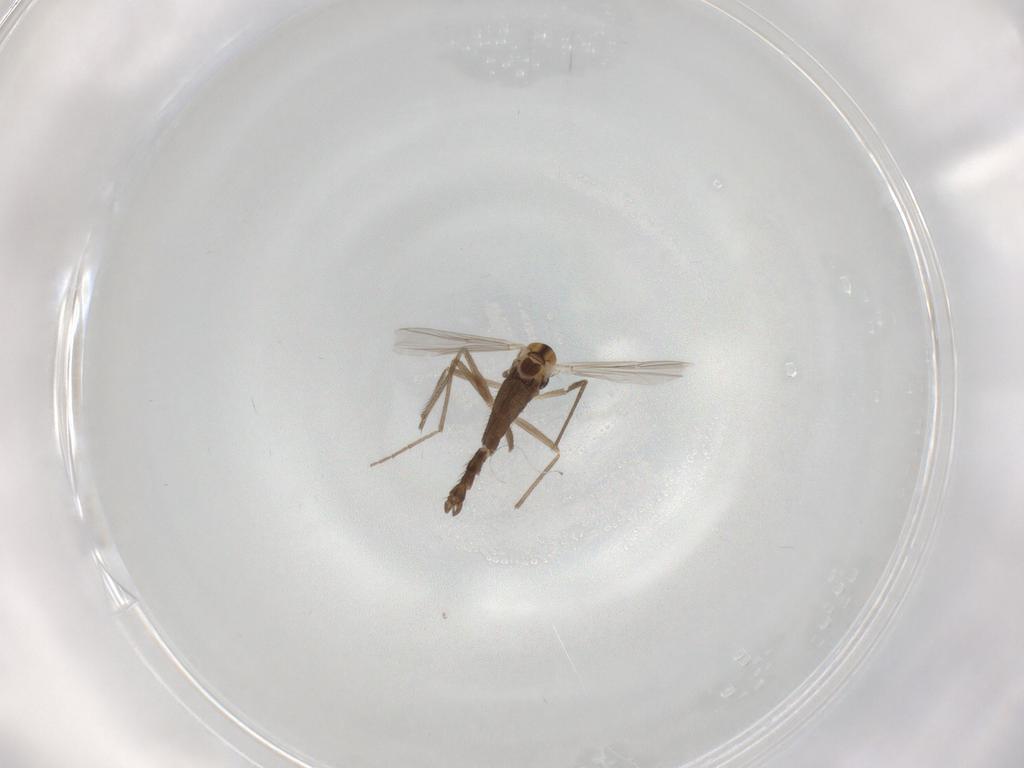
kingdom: Animalia
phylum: Arthropoda
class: Insecta
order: Diptera
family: Chironomidae
